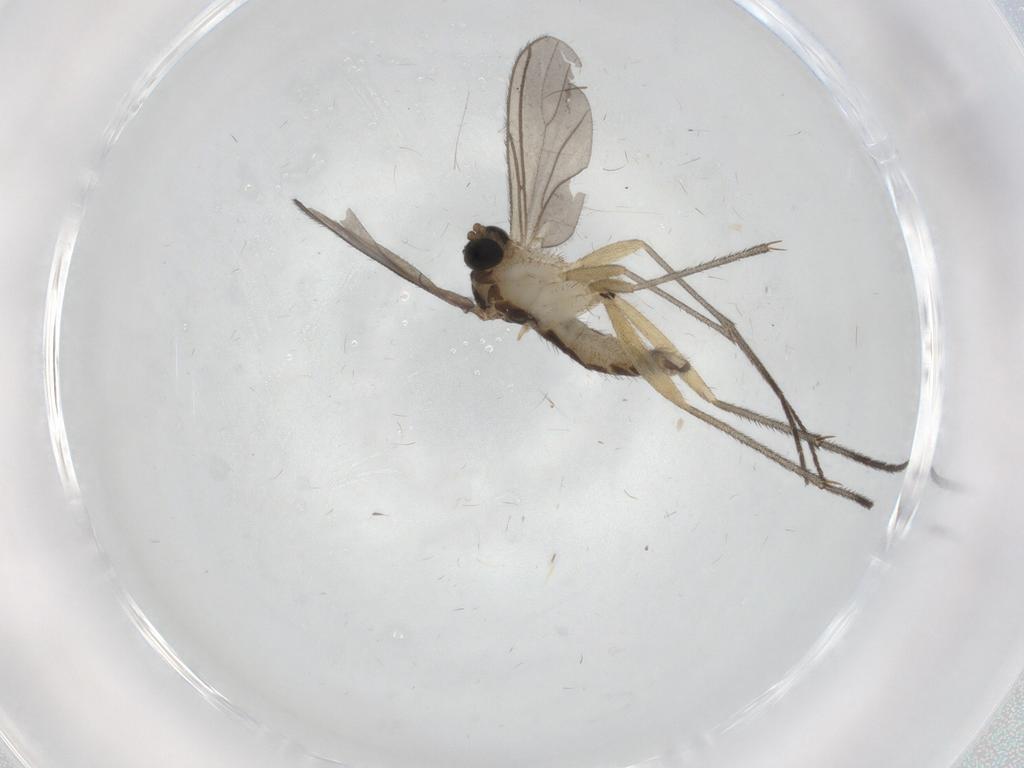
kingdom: Animalia
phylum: Arthropoda
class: Insecta
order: Diptera
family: Sciaridae
